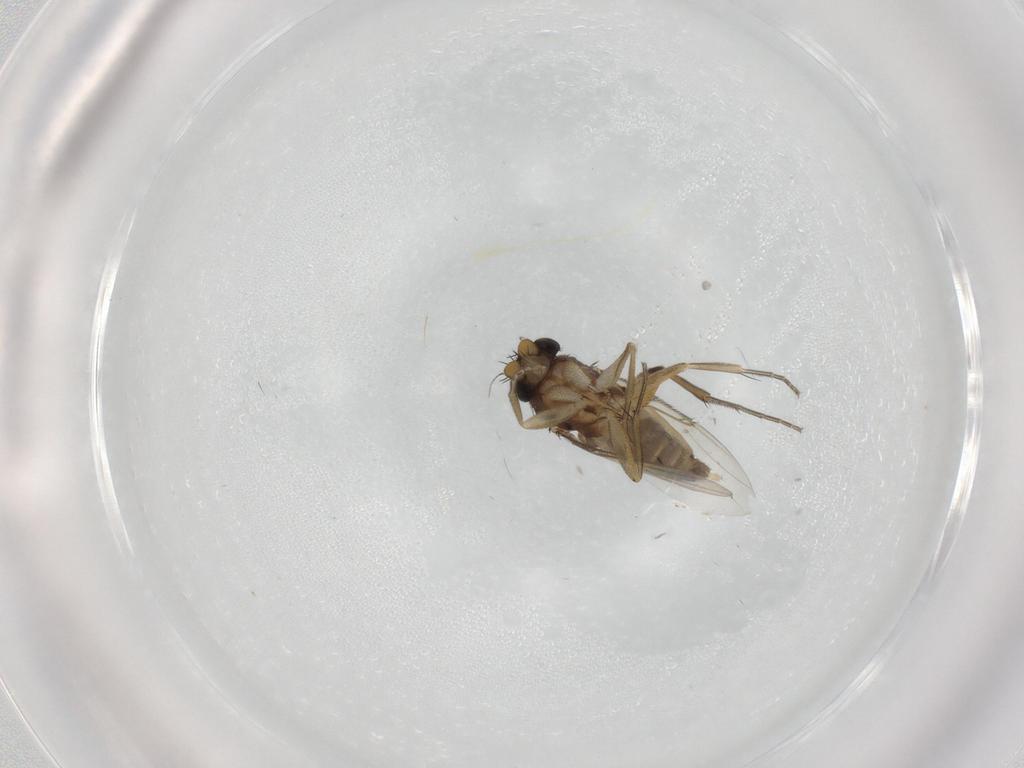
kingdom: Animalia
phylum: Arthropoda
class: Insecta
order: Diptera
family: Phoridae
